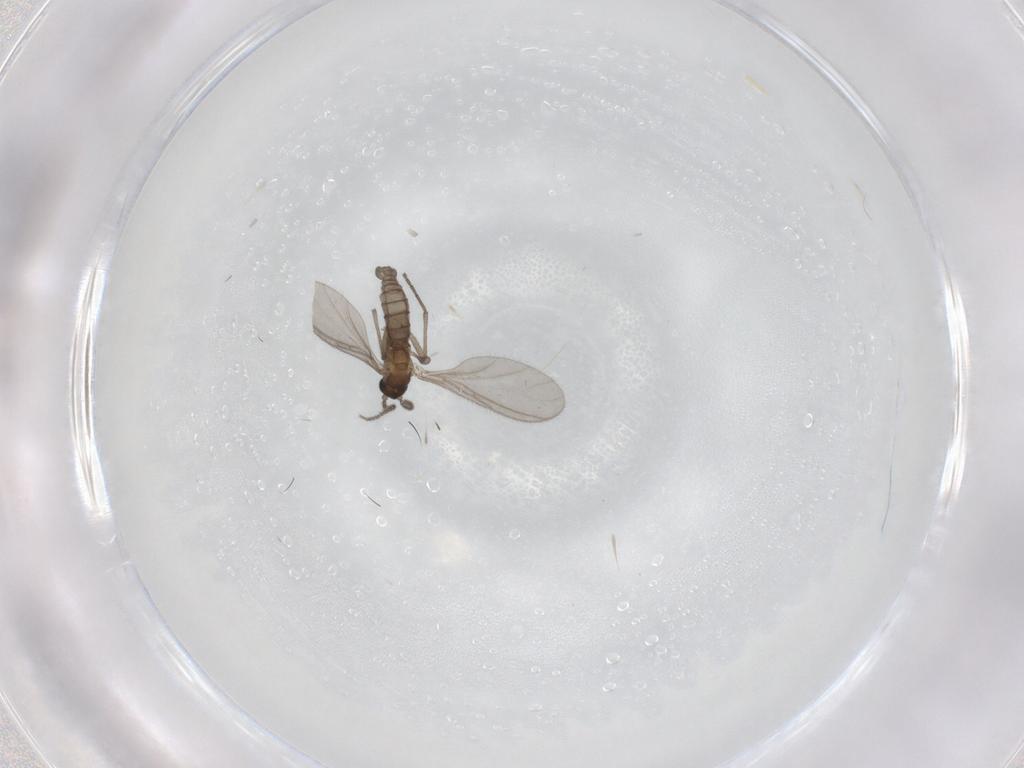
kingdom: Animalia
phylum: Arthropoda
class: Insecta
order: Diptera
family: Sciaridae
